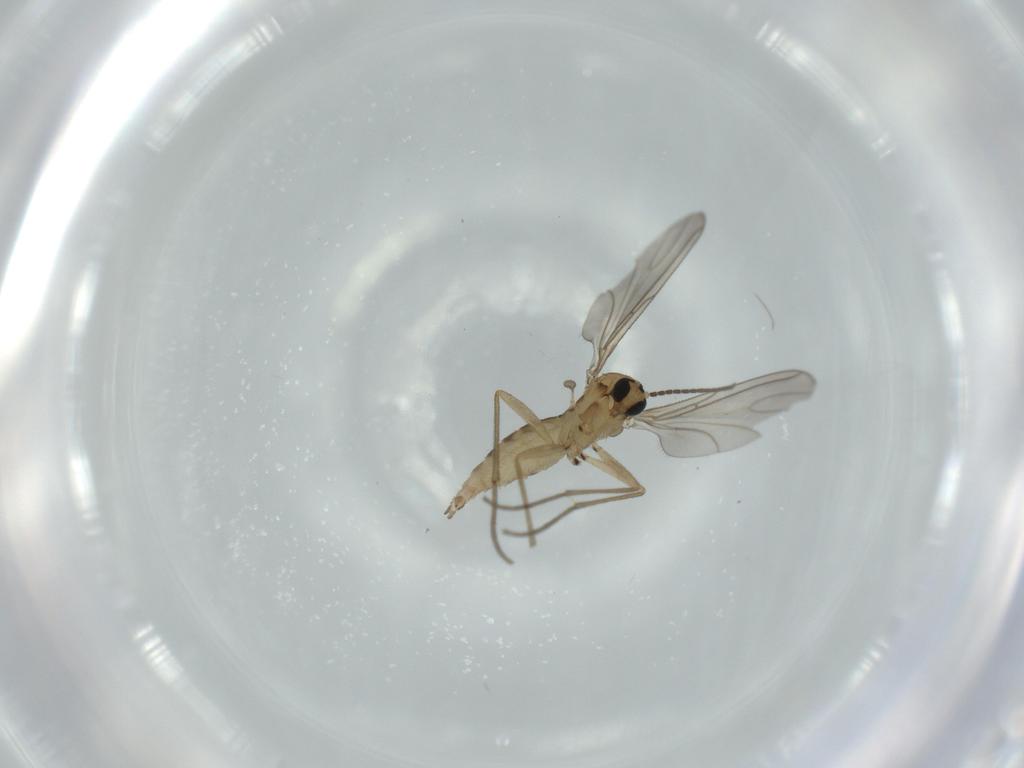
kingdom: Animalia
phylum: Arthropoda
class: Insecta
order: Diptera
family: Sciaridae
